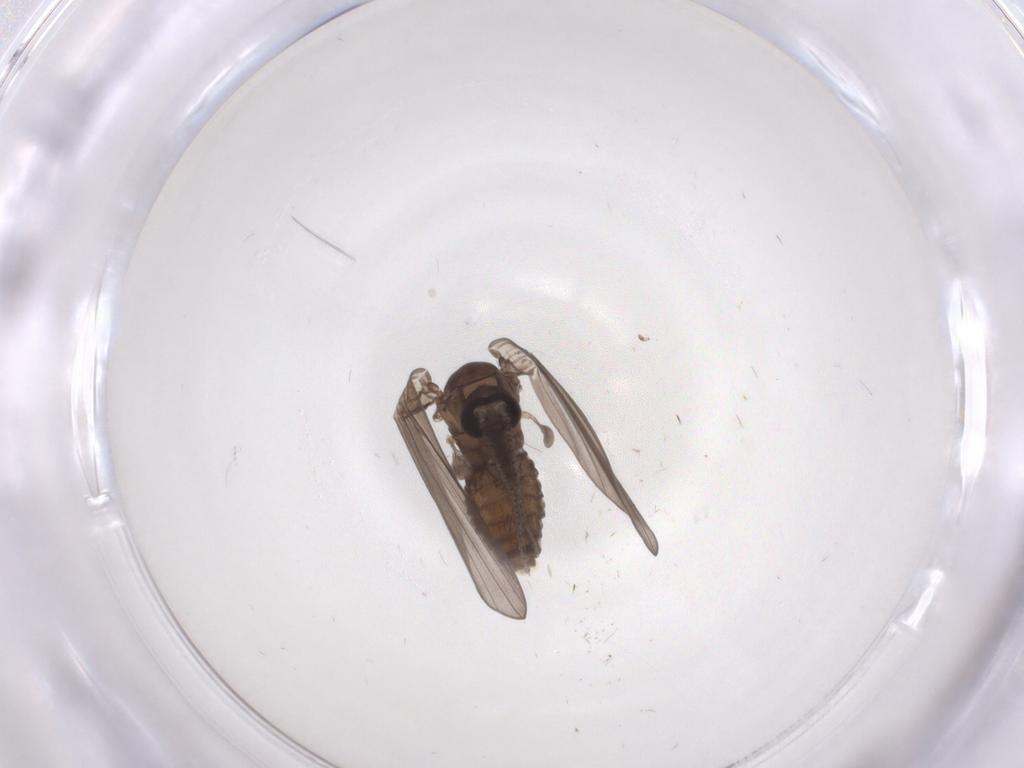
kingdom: Animalia
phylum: Arthropoda
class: Insecta
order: Diptera
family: Psychodidae
